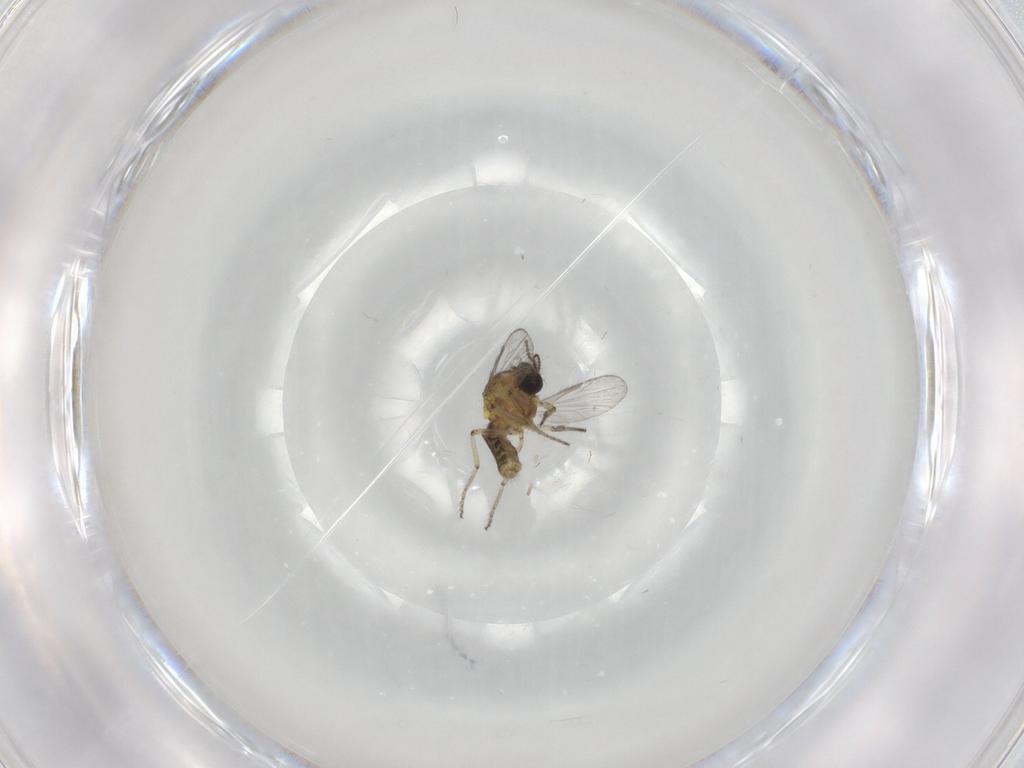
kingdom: Animalia
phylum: Arthropoda
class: Insecta
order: Diptera
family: Ceratopogonidae
